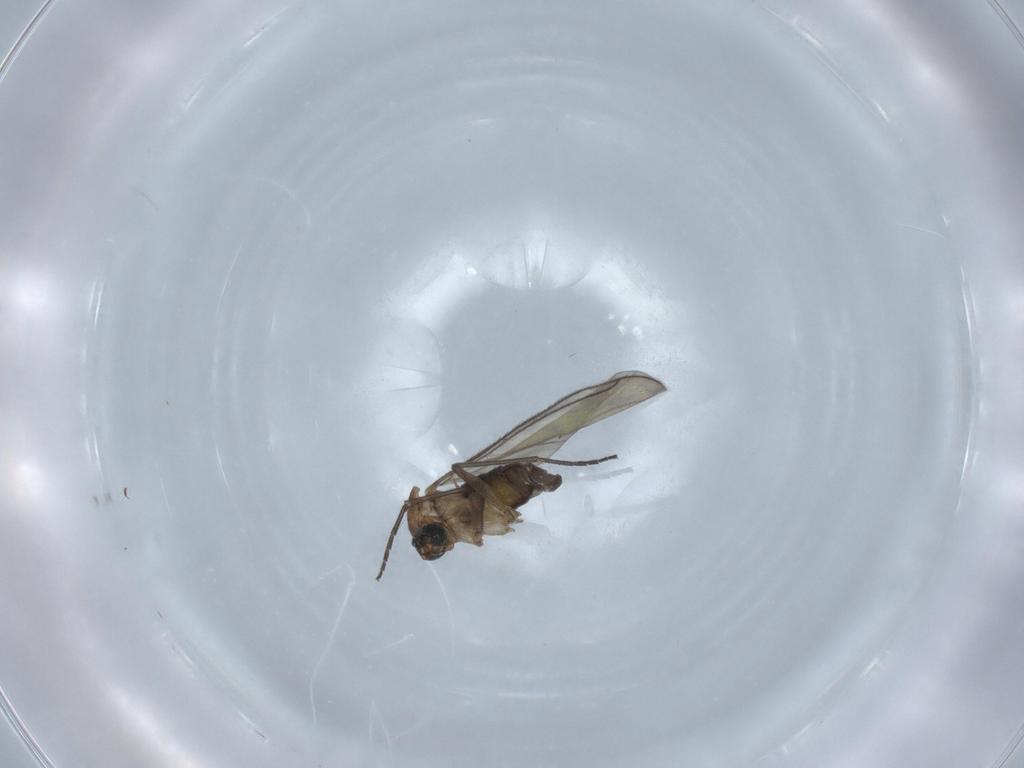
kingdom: Animalia
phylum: Arthropoda
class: Insecta
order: Diptera
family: Sciaridae
